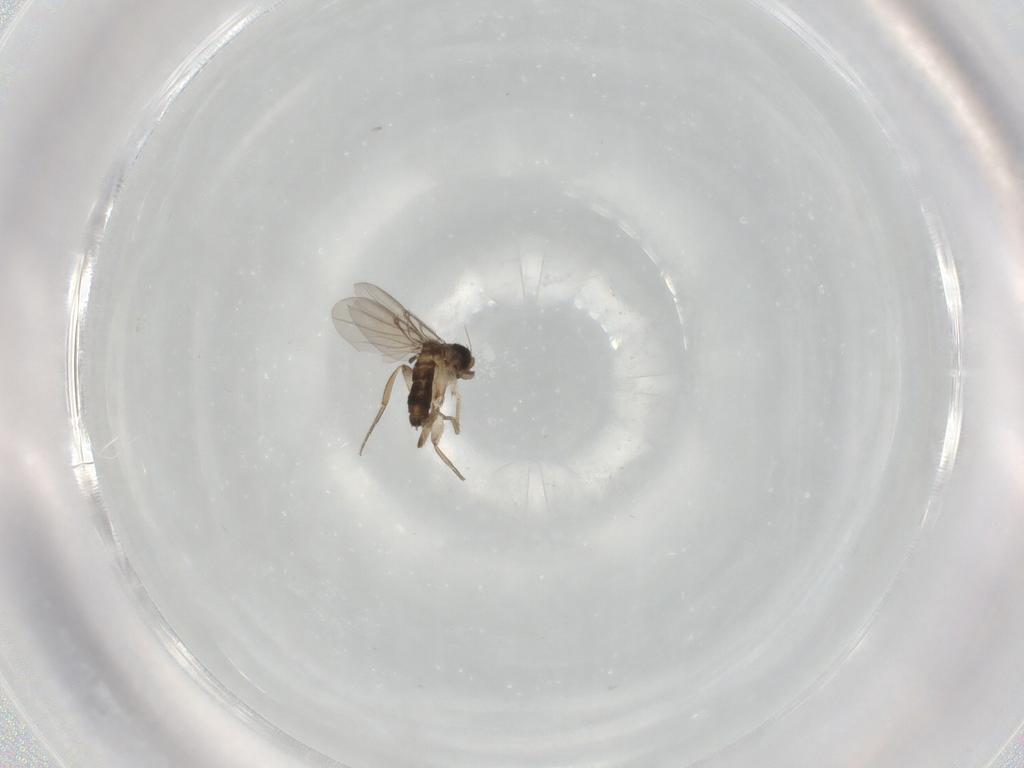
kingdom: Animalia
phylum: Arthropoda
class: Insecta
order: Diptera
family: Phoridae
